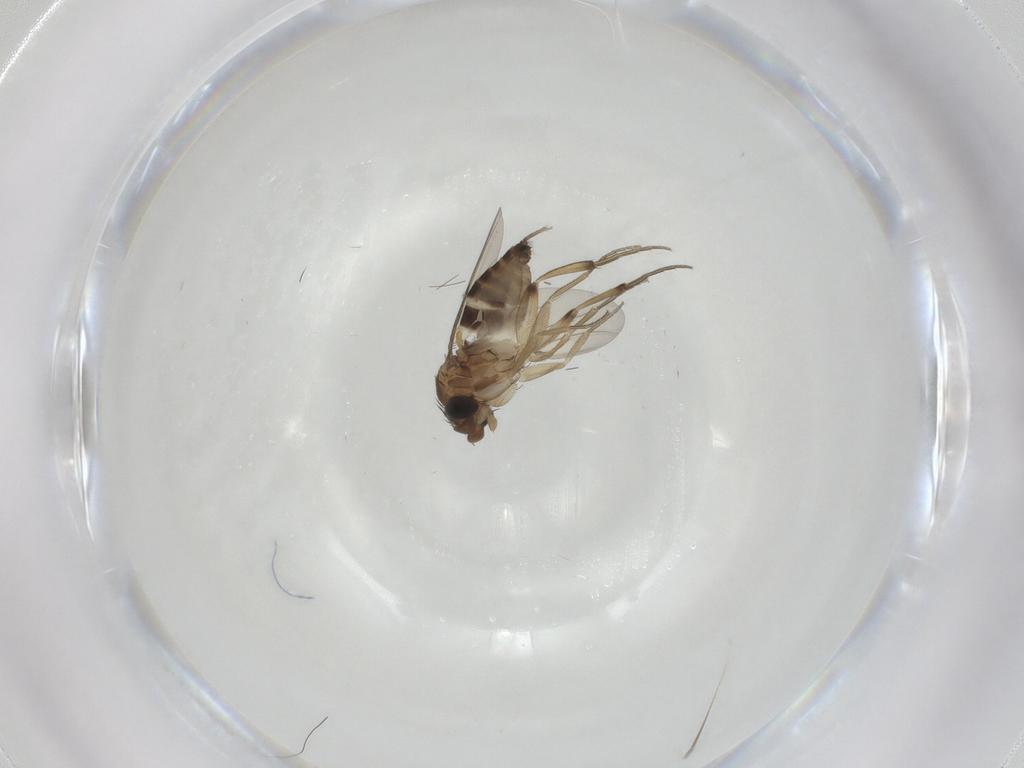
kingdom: Animalia
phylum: Arthropoda
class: Insecta
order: Diptera
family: Phoridae
